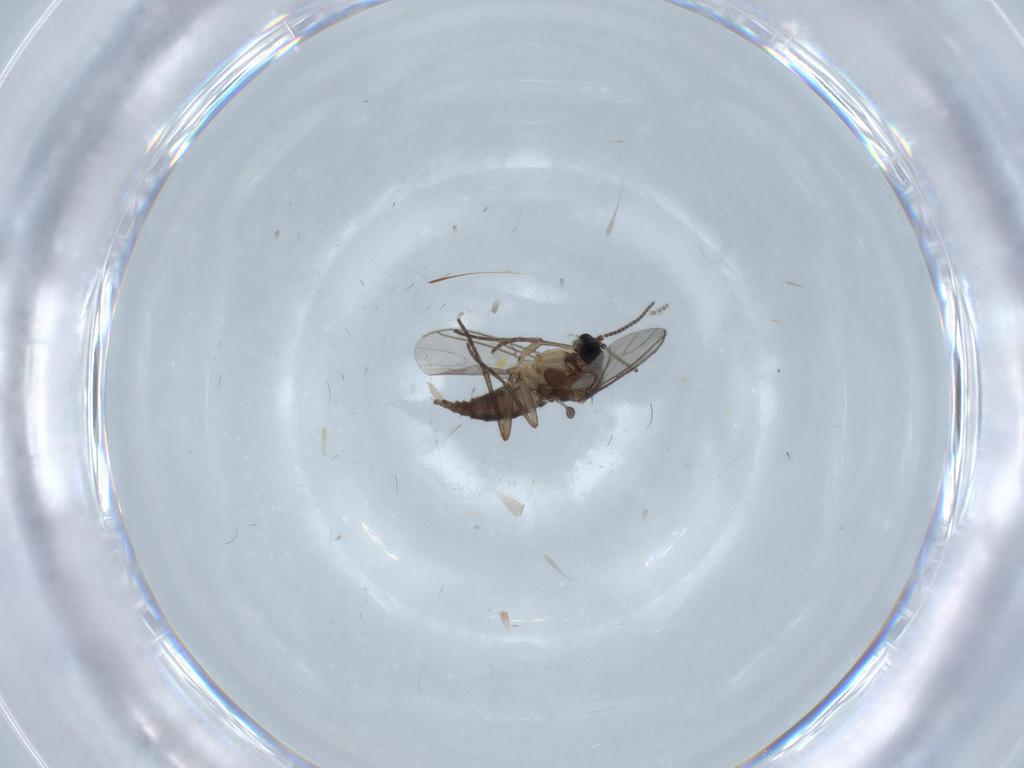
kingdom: Animalia
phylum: Arthropoda
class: Insecta
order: Diptera
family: Sciaridae
